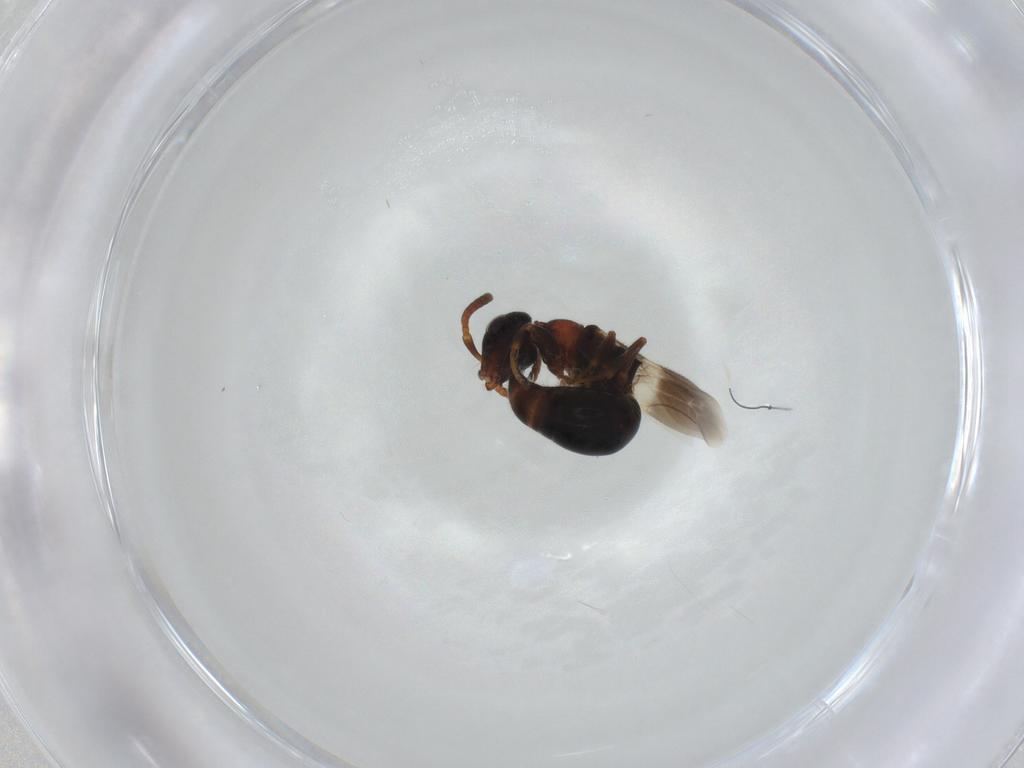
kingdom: Animalia
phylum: Arthropoda
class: Insecta
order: Hymenoptera
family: Bethylidae
